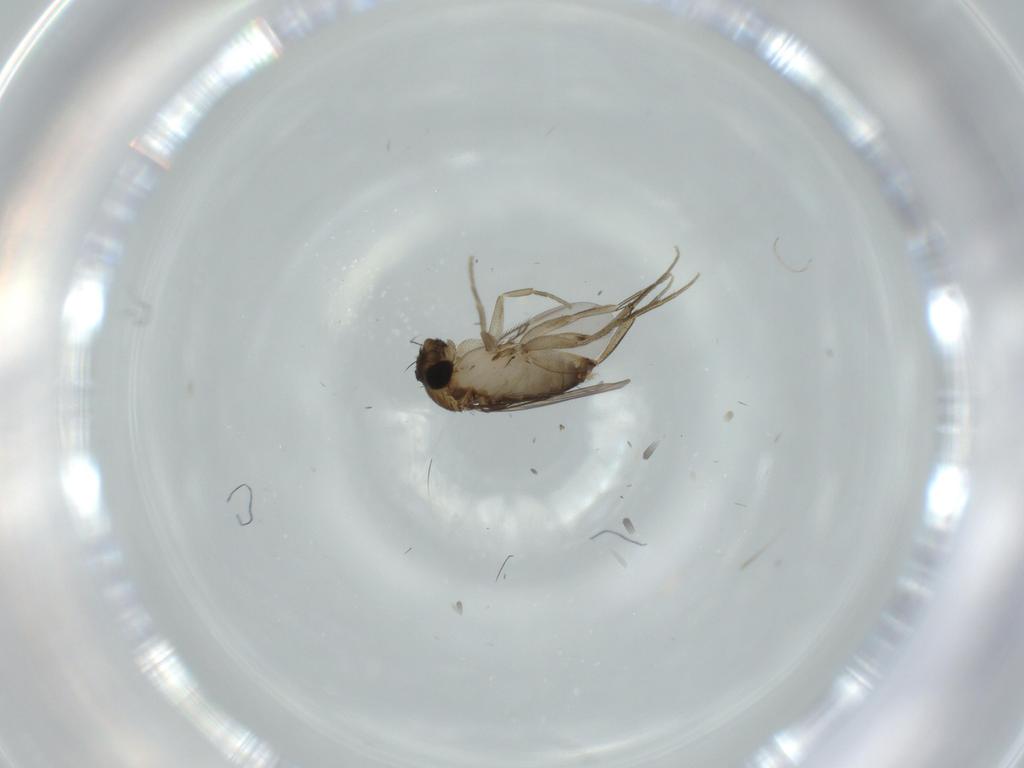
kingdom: Animalia
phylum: Arthropoda
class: Insecta
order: Diptera
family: Phoridae
